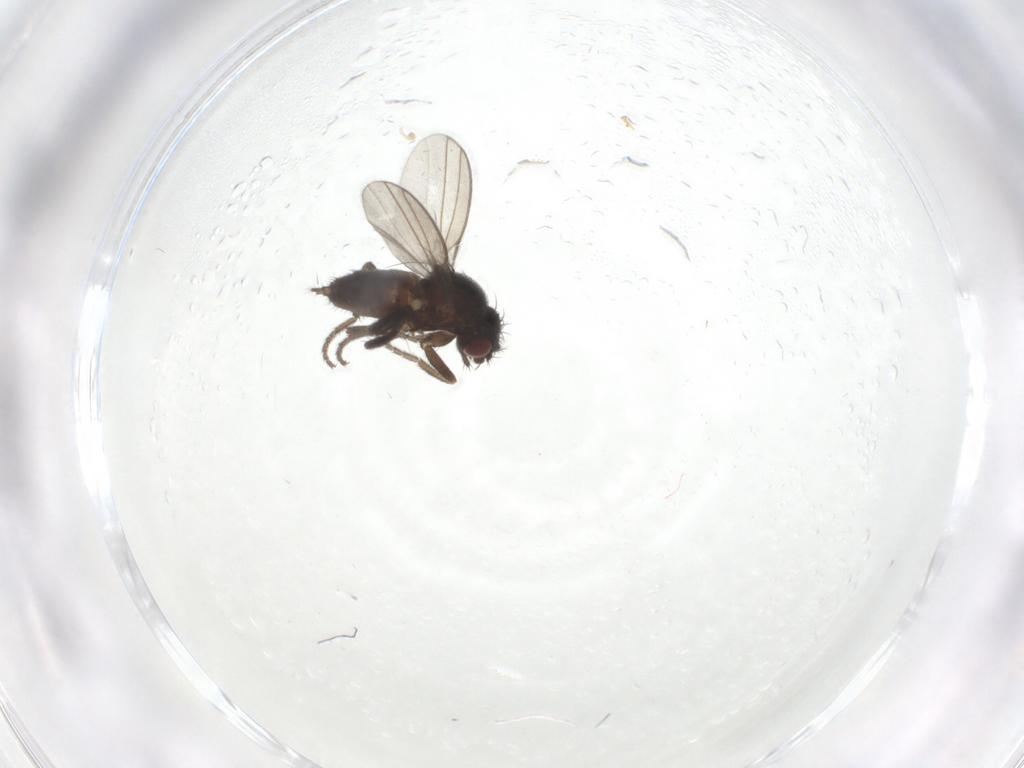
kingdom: Animalia
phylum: Arthropoda
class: Insecta
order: Diptera
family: Milichiidae
